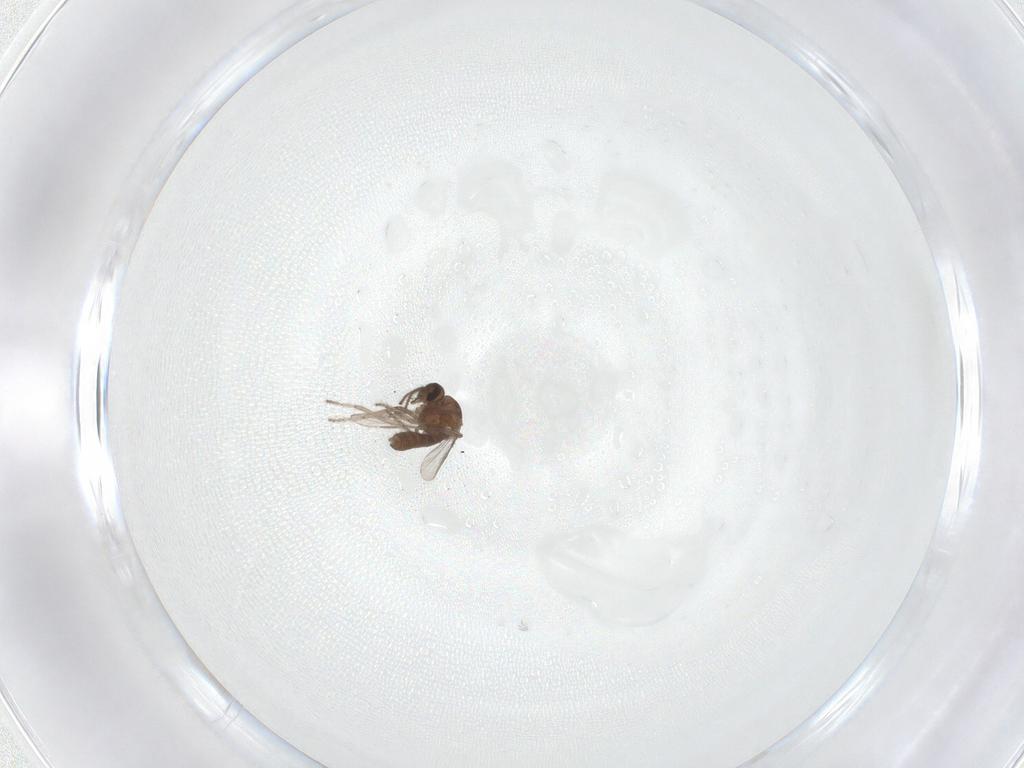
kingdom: Animalia
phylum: Arthropoda
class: Insecta
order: Diptera
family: Ceratopogonidae
